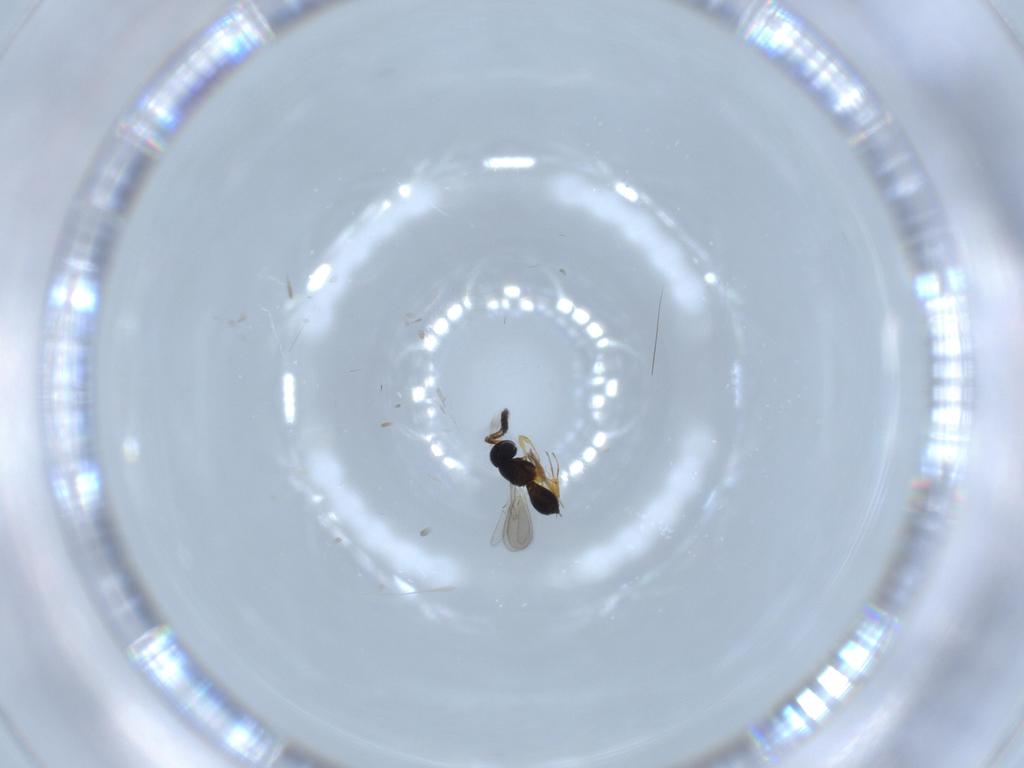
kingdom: Animalia
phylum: Arthropoda
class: Insecta
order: Hymenoptera
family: Scelionidae
